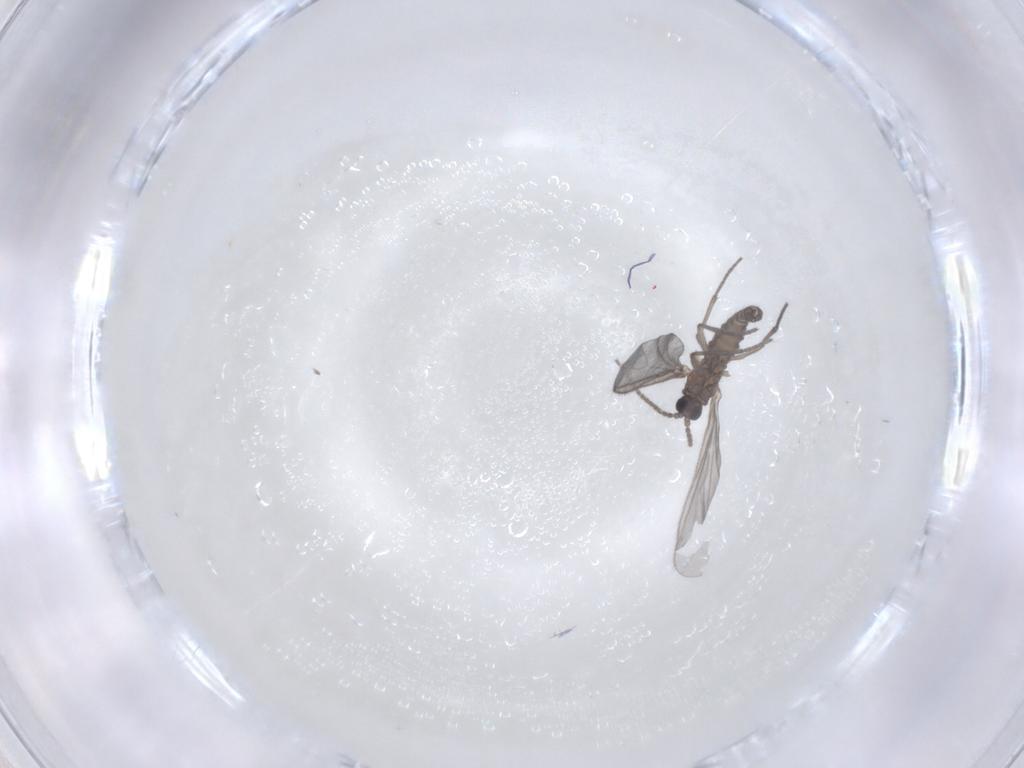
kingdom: Animalia
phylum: Arthropoda
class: Insecta
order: Diptera
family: Sciaridae
